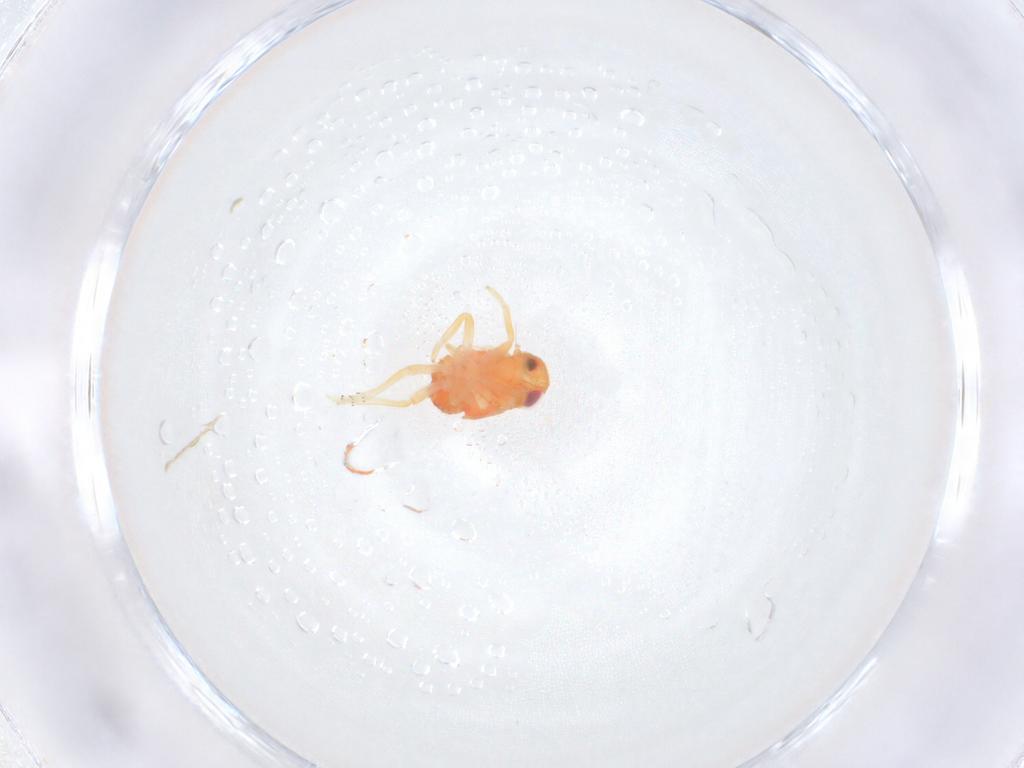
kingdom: Animalia
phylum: Arthropoda
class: Insecta
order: Hemiptera
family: Issidae
